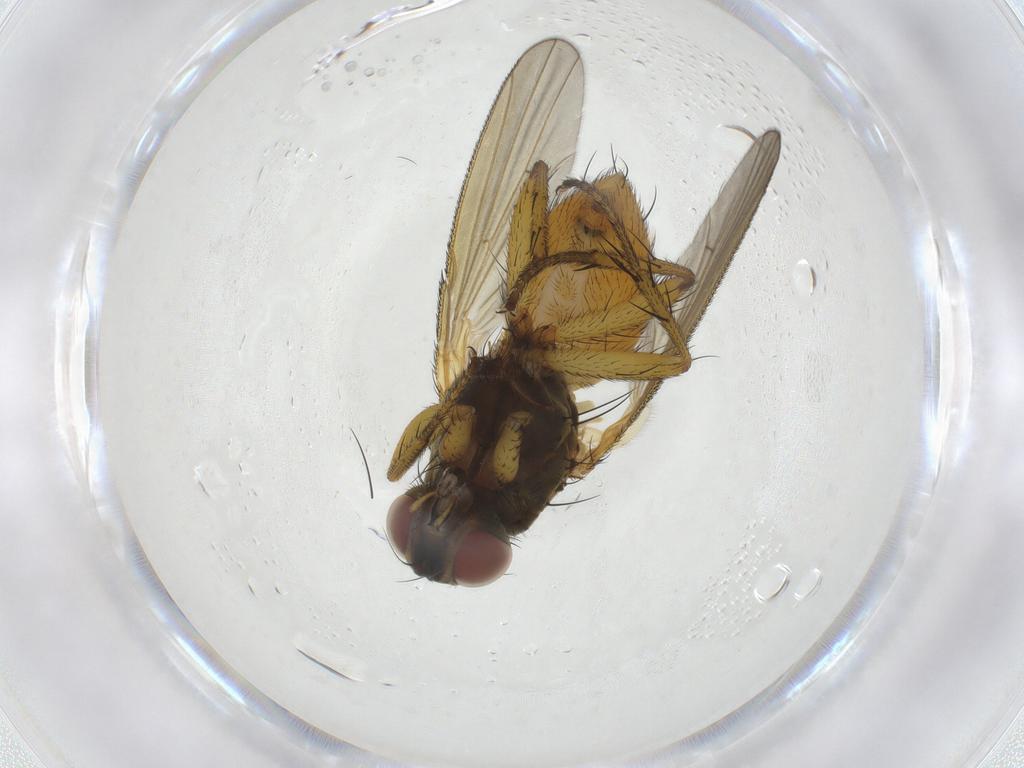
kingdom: Animalia
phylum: Arthropoda
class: Insecta
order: Diptera
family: Muscidae
